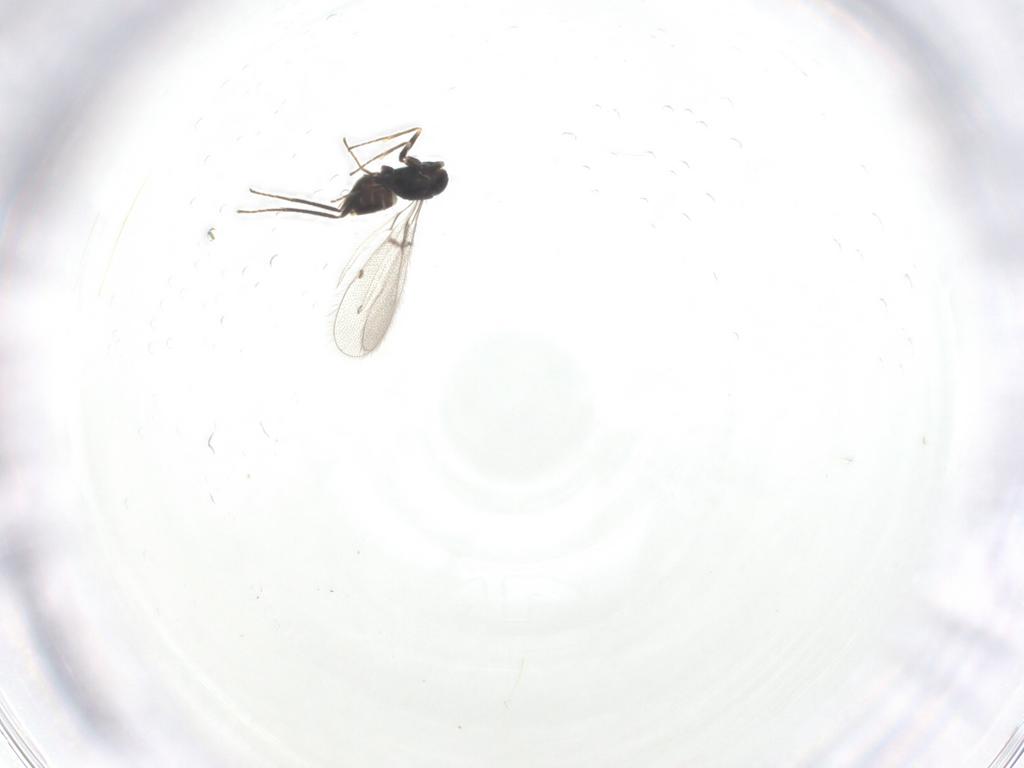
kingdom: Animalia
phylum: Arthropoda
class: Insecta
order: Hymenoptera
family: Mymaridae
